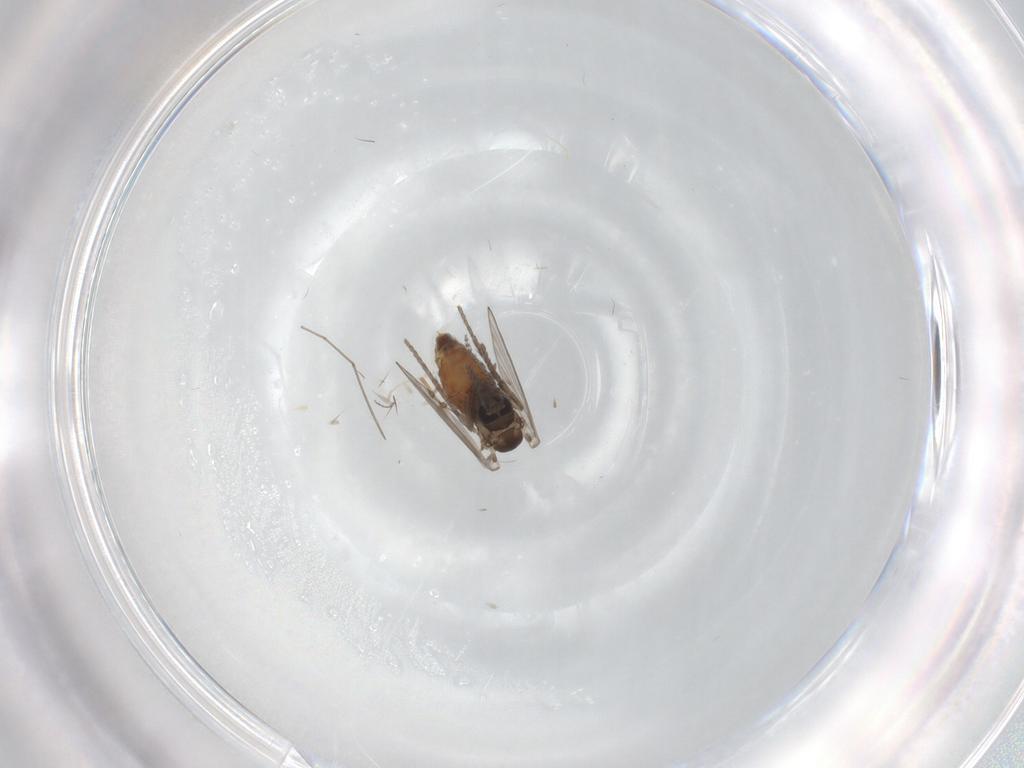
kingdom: Animalia
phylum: Arthropoda
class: Insecta
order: Diptera
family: Psychodidae
